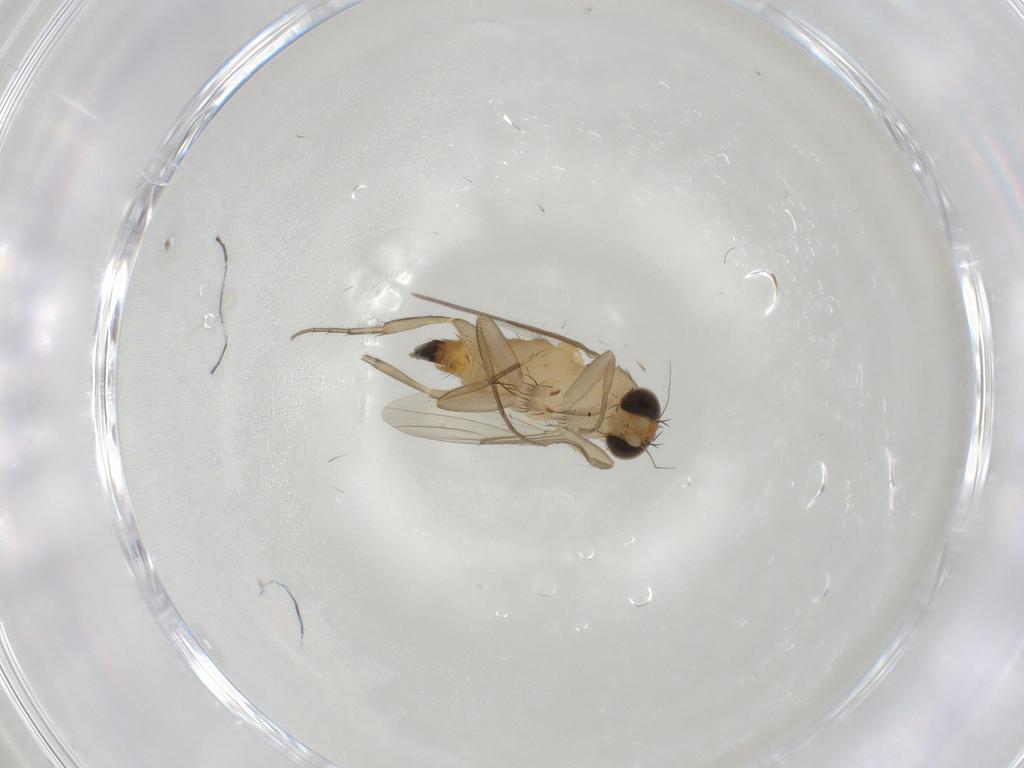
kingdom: Animalia
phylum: Arthropoda
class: Insecta
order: Diptera
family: Phoridae
